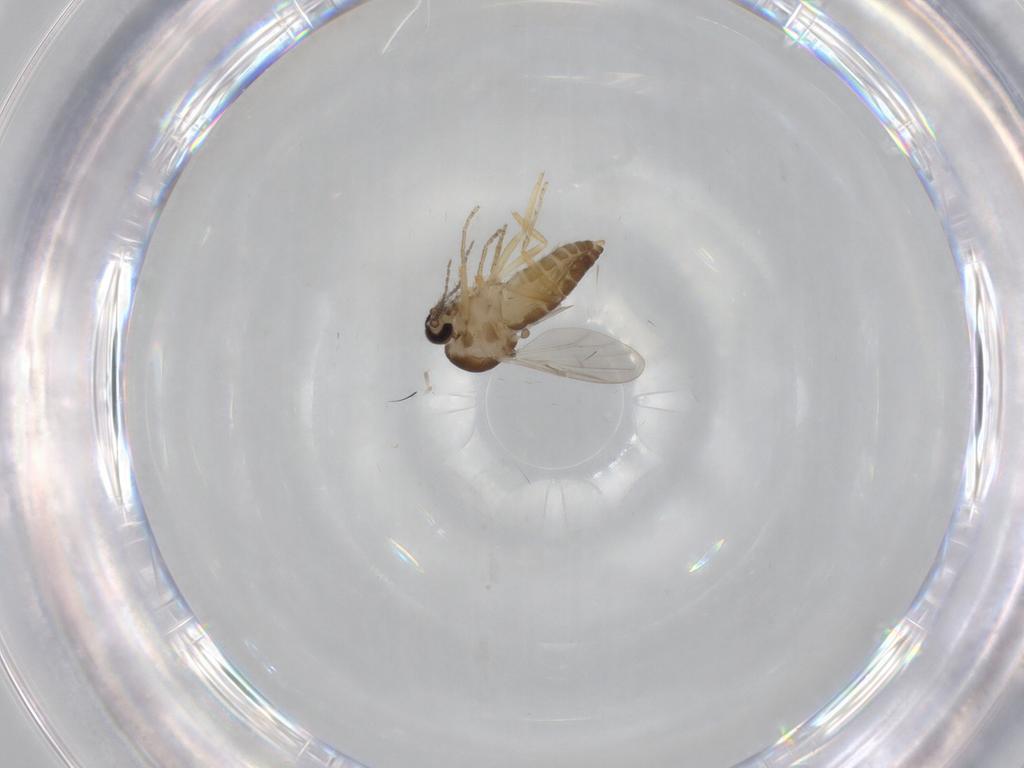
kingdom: Animalia
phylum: Arthropoda
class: Insecta
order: Diptera
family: Ceratopogonidae
